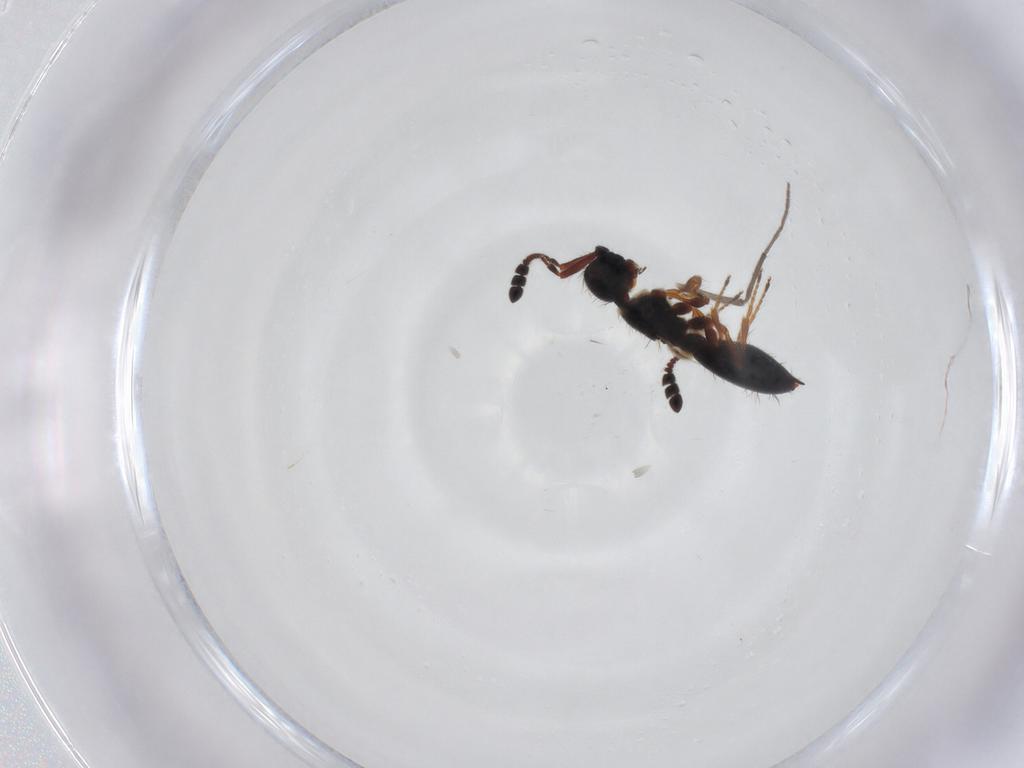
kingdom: Animalia
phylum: Arthropoda
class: Insecta
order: Hymenoptera
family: Diapriidae
